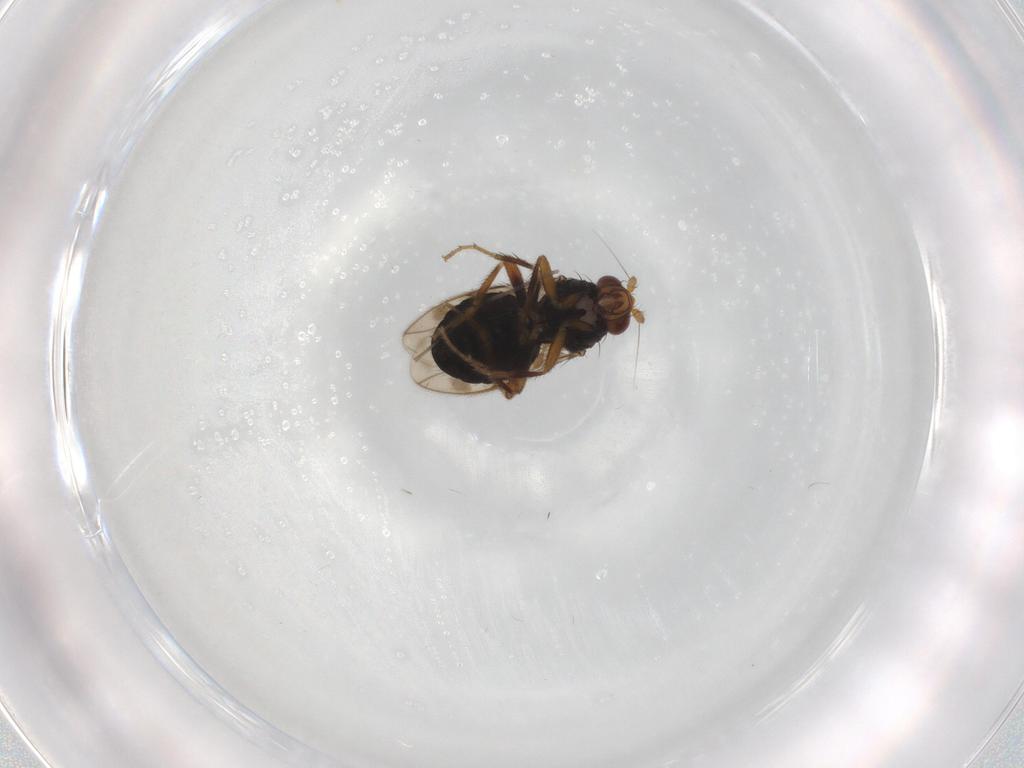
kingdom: Animalia
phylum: Arthropoda
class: Insecta
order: Diptera
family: Sphaeroceridae
